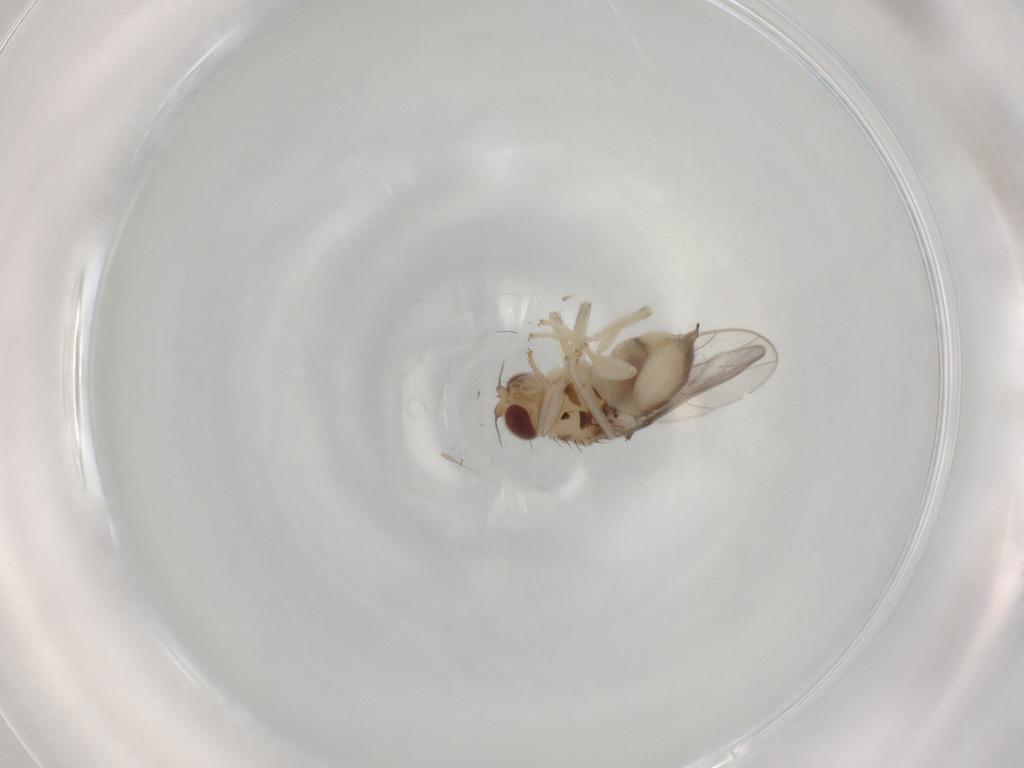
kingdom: Animalia
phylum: Arthropoda
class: Insecta
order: Diptera
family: Chloropidae
